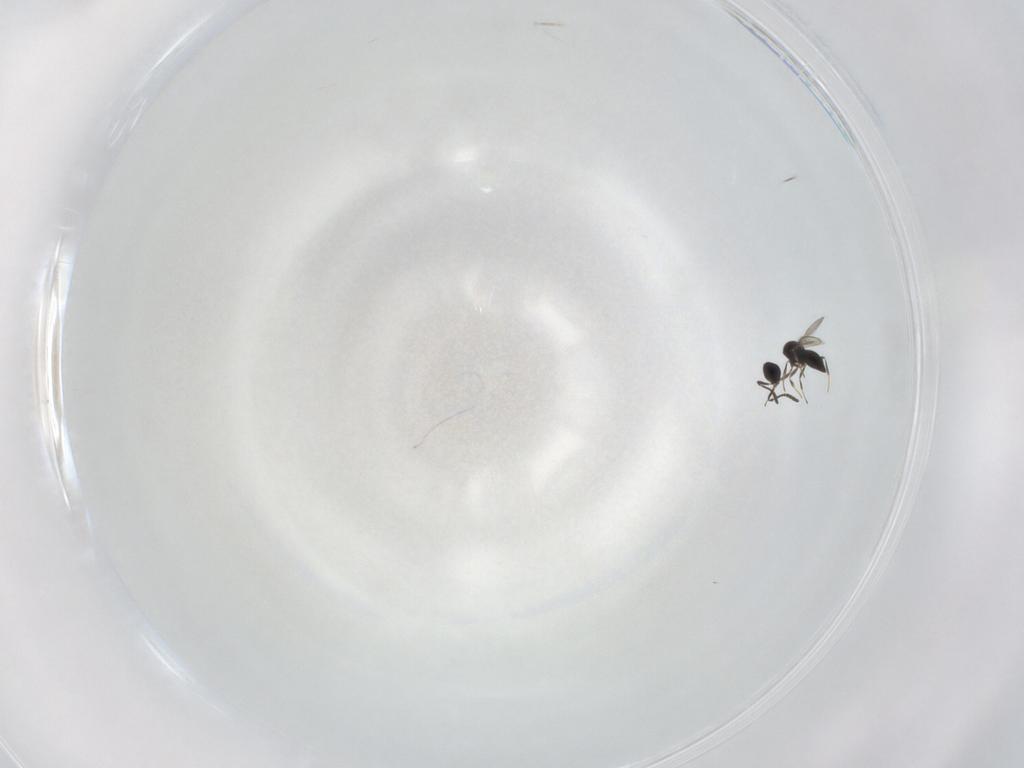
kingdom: Animalia
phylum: Arthropoda
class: Insecta
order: Hymenoptera
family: Scelionidae
